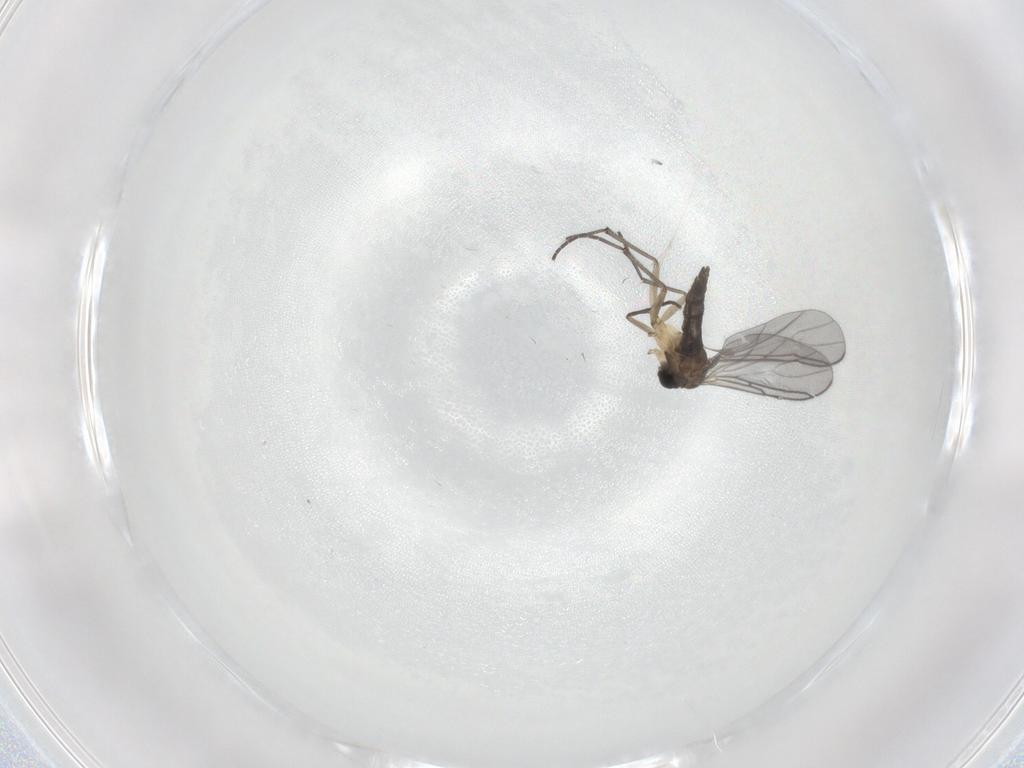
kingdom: Animalia
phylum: Arthropoda
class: Insecta
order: Diptera
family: Sciaridae
